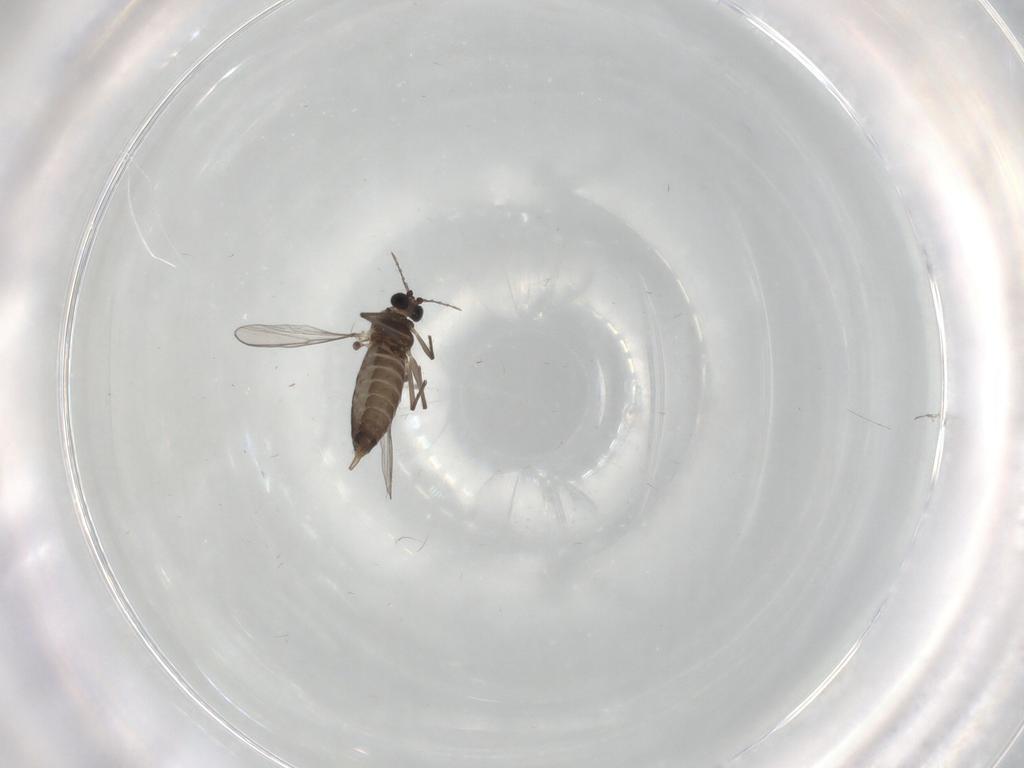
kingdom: Animalia
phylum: Arthropoda
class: Insecta
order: Diptera
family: Chironomidae
